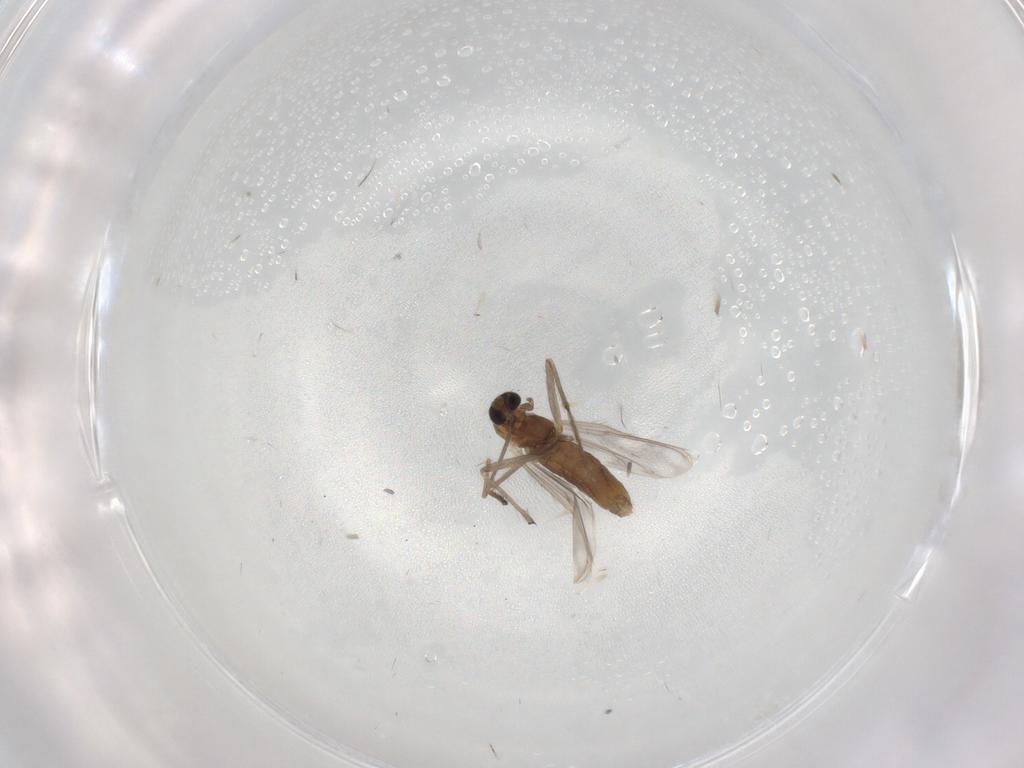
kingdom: Animalia
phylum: Arthropoda
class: Insecta
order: Diptera
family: Chironomidae
